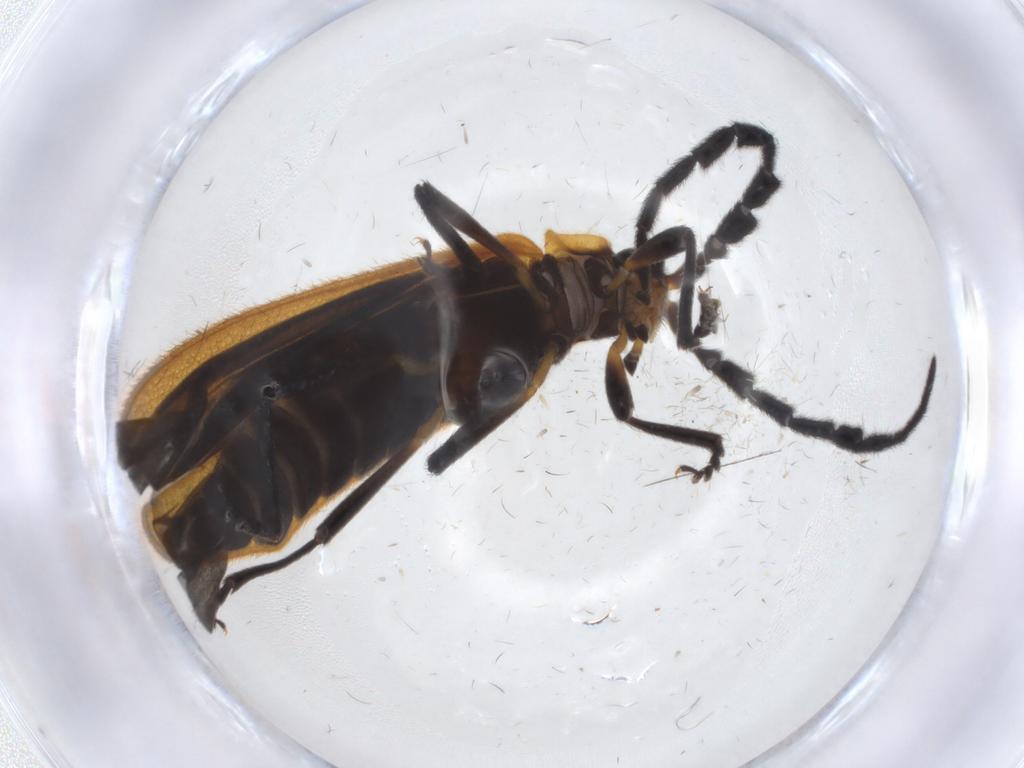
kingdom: Animalia
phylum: Arthropoda
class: Insecta
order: Coleoptera
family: Lycidae
